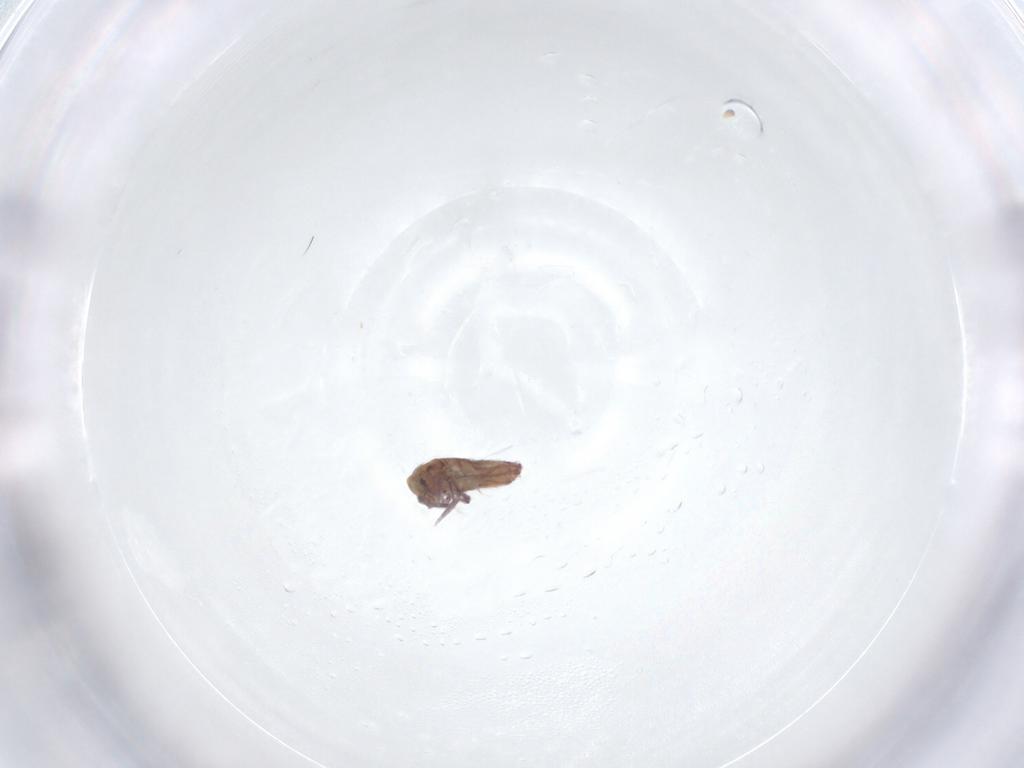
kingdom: Animalia
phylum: Arthropoda
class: Collembola
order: Entomobryomorpha
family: Entomobryidae
